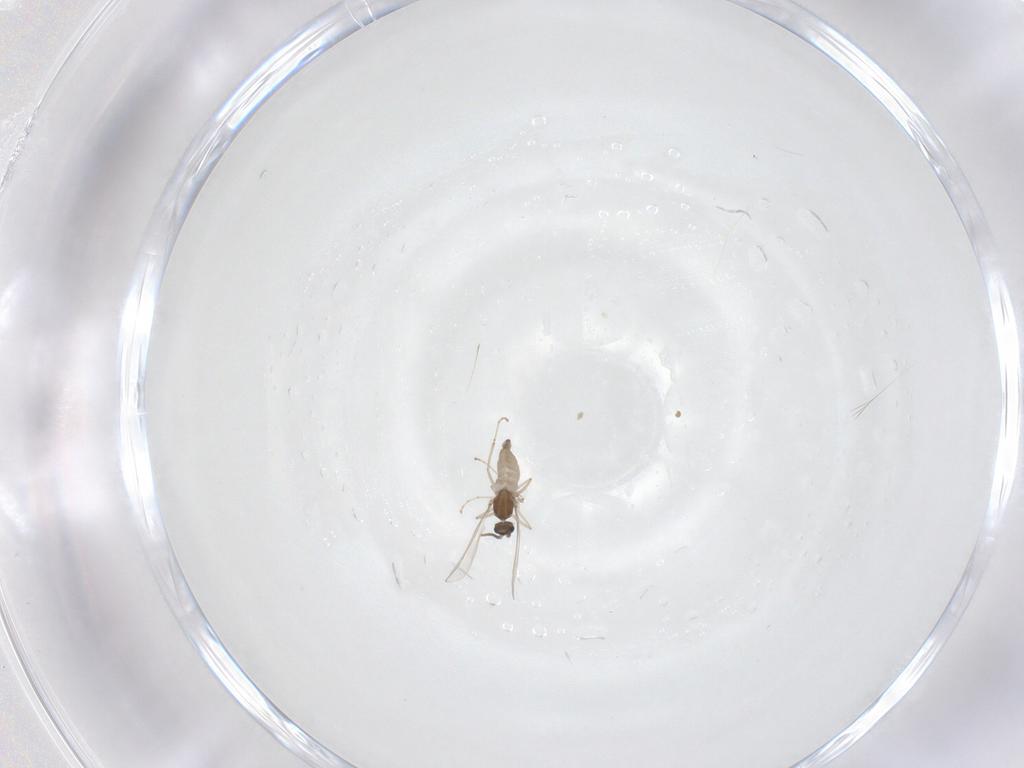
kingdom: Animalia
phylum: Arthropoda
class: Insecta
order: Diptera
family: Cecidomyiidae
